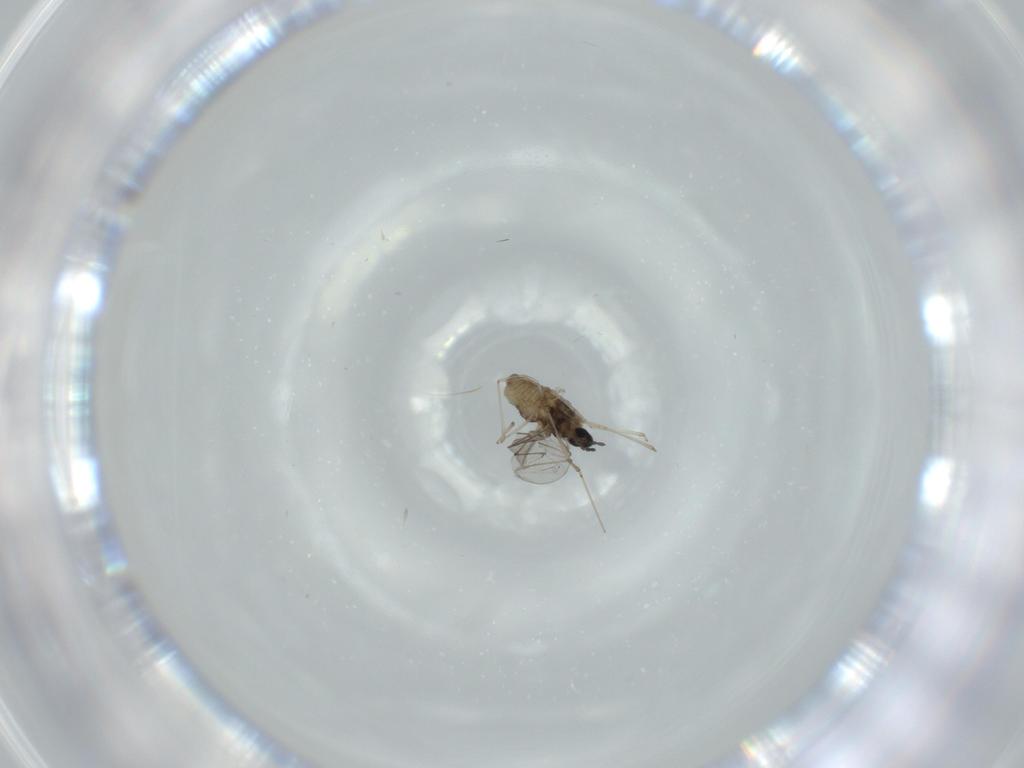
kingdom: Animalia
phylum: Arthropoda
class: Insecta
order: Diptera
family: Cecidomyiidae
